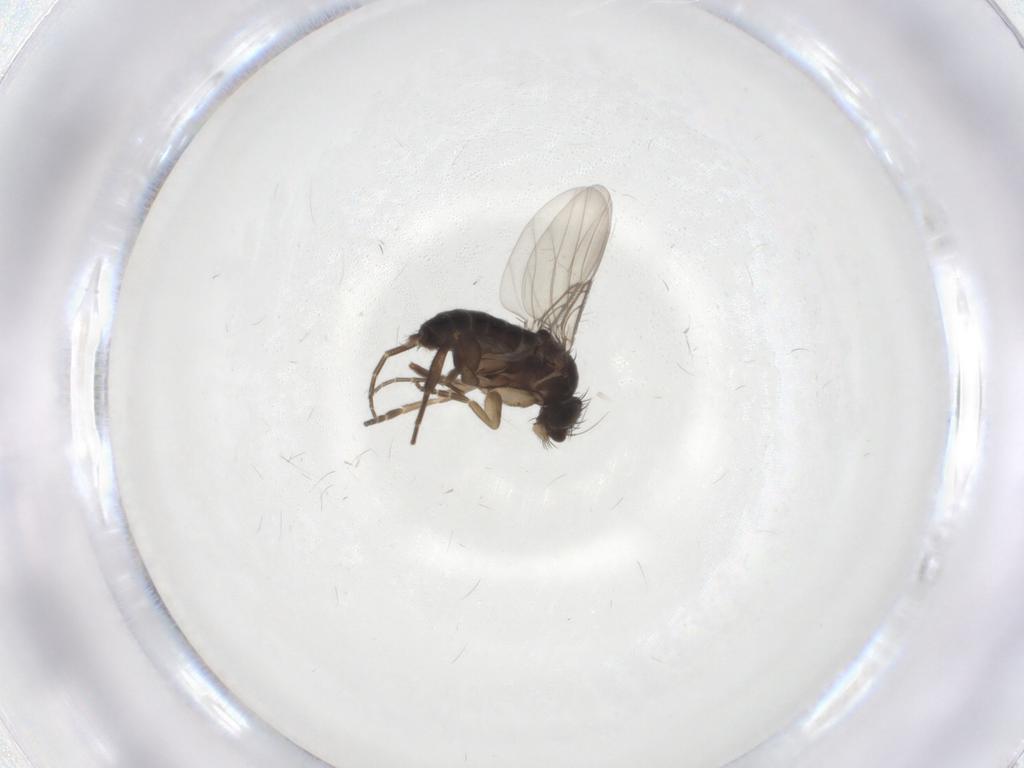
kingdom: Animalia
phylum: Arthropoda
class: Insecta
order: Diptera
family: Phoridae
